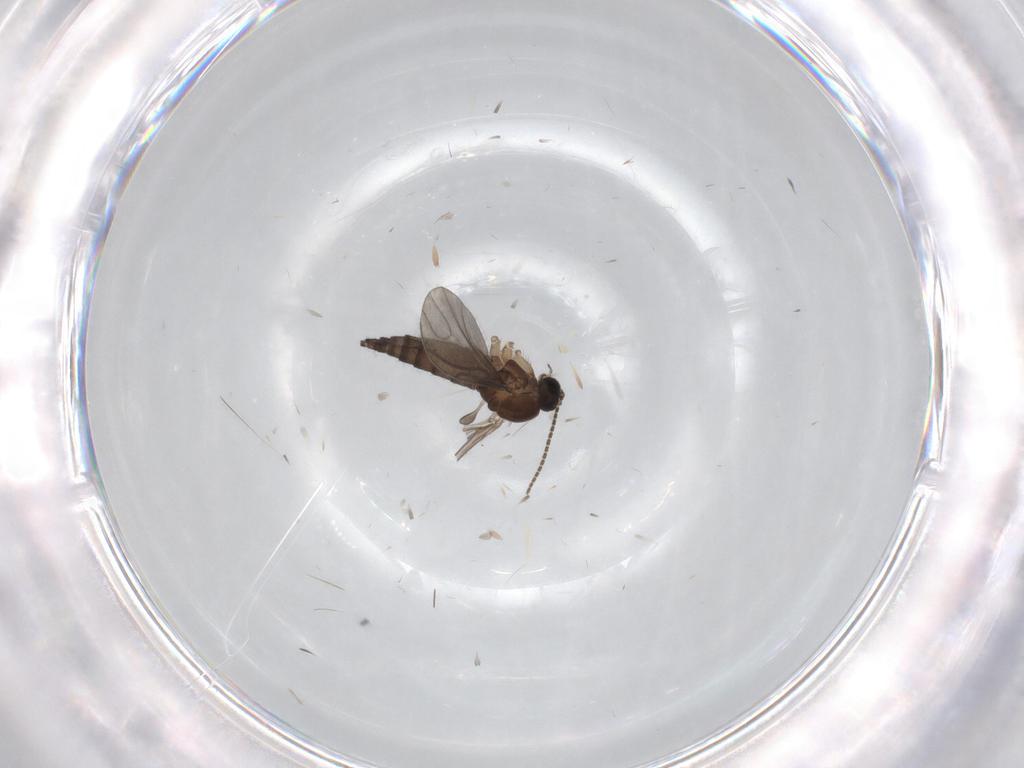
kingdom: Animalia
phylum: Arthropoda
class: Insecta
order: Diptera
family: Sciaridae
